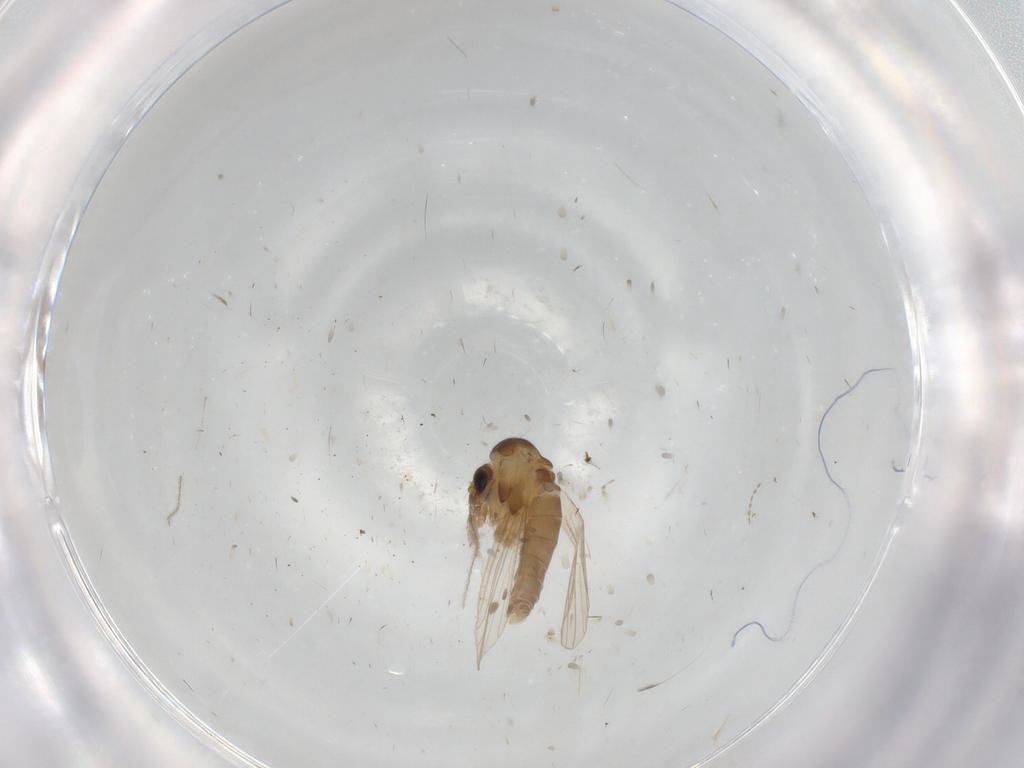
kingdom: Animalia
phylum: Arthropoda
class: Insecta
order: Diptera
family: Psychodidae
